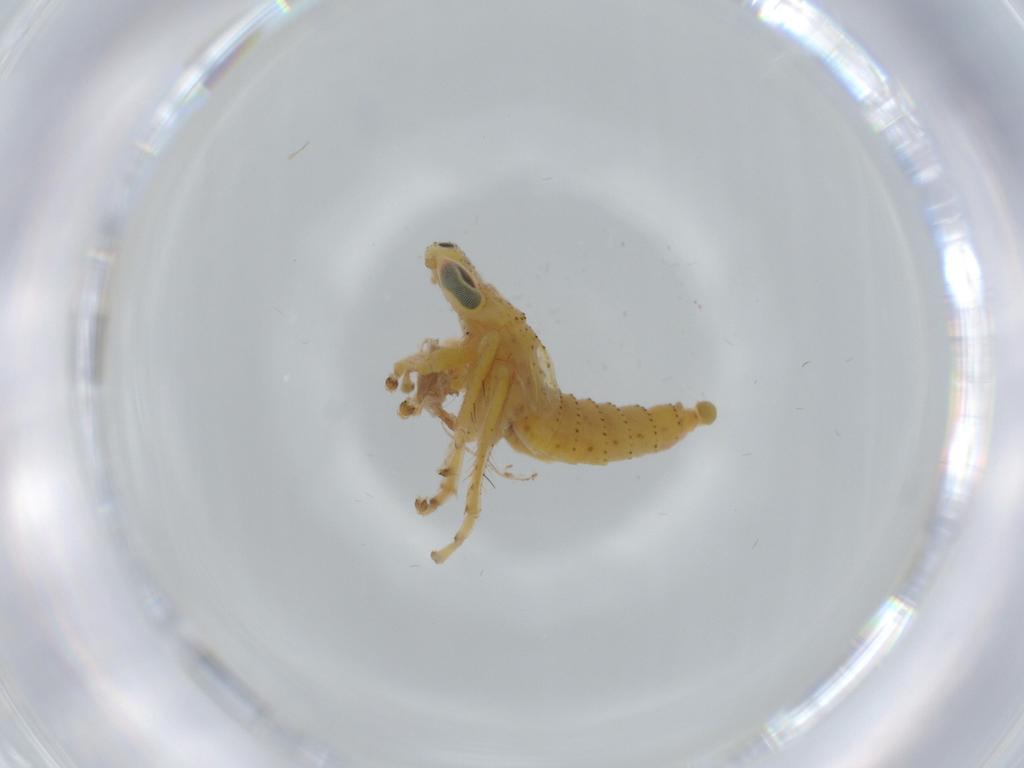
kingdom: Animalia
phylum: Arthropoda
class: Insecta
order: Hemiptera
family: Cicadellidae
